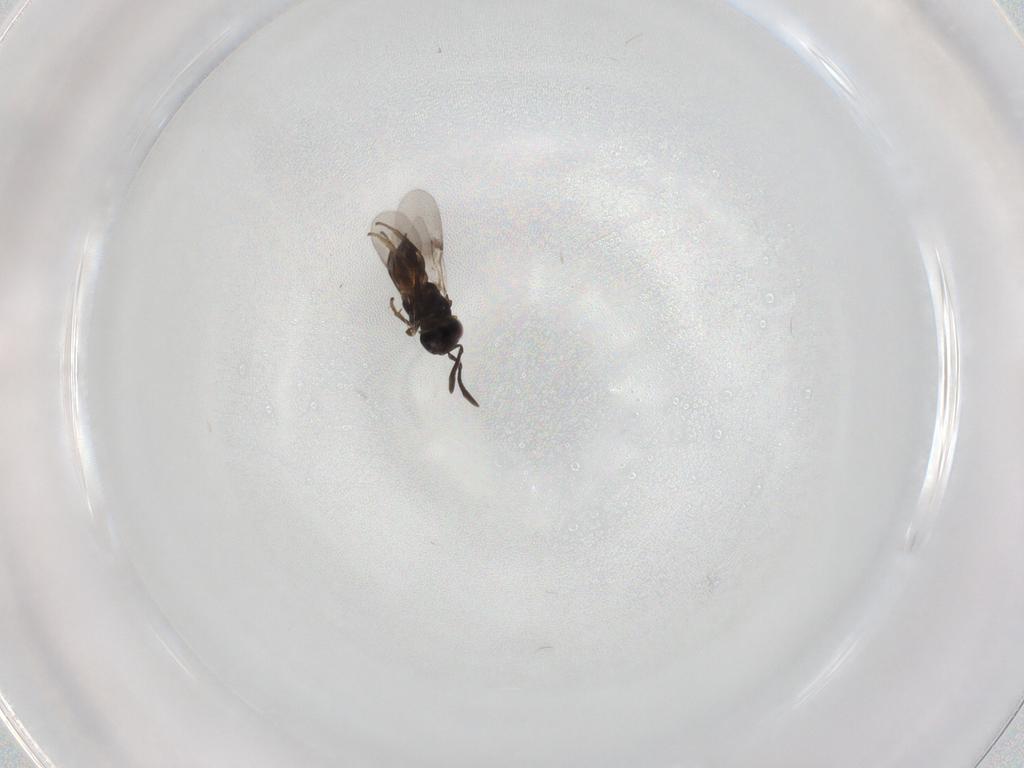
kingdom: Animalia
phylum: Arthropoda
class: Insecta
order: Hymenoptera
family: Encyrtidae
